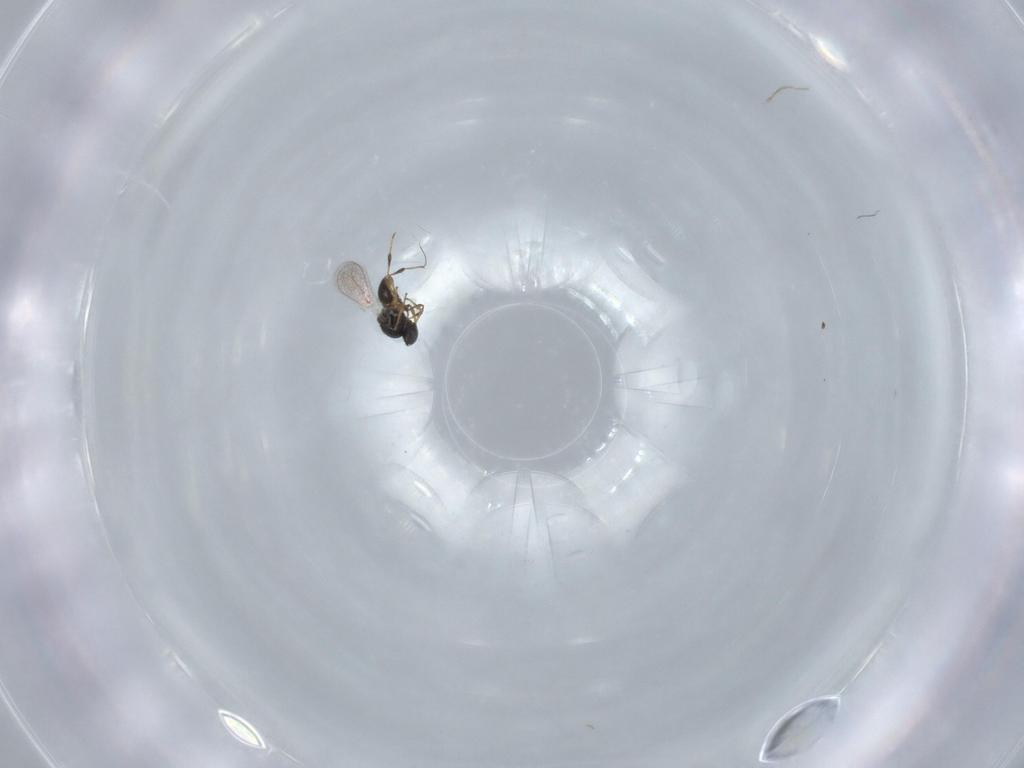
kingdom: Animalia
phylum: Arthropoda
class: Insecta
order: Hymenoptera
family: Platygastridae
